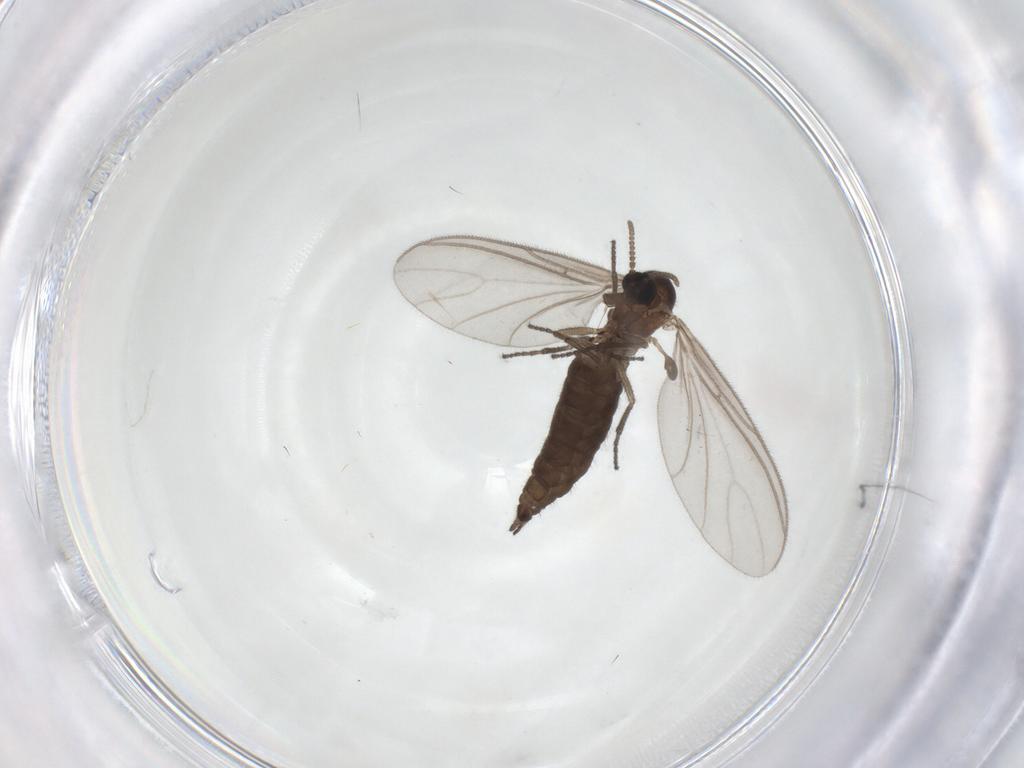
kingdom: Animalia
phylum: Arthropoda
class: Insecta
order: Diptera
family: Sciaridae
